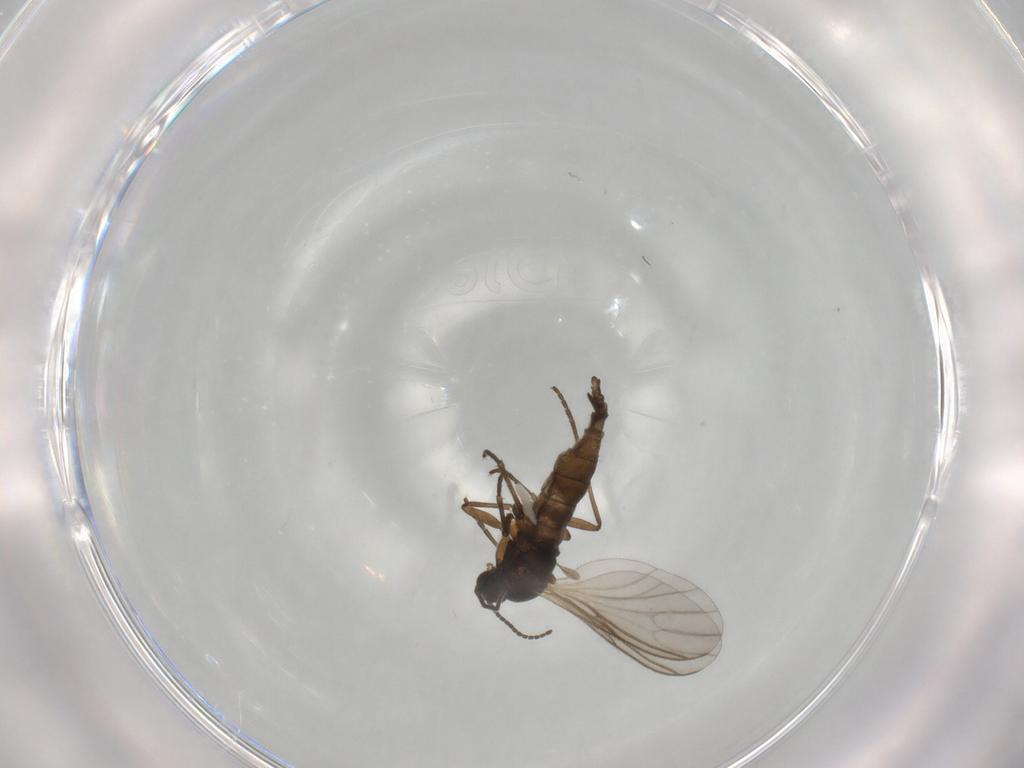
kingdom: Animalia
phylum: Arthropoda
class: Insecta
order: Diptera
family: Sciaridae
